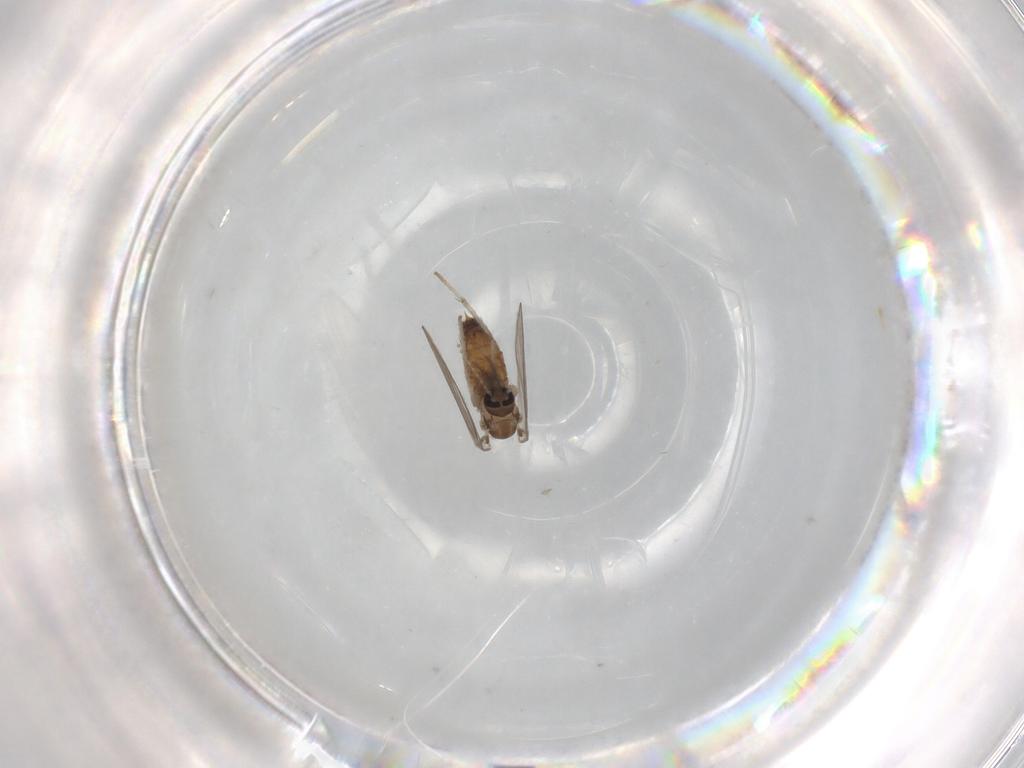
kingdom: Animalia
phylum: Arthropoda
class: Insecta
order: Diptera
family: Psychodidae
